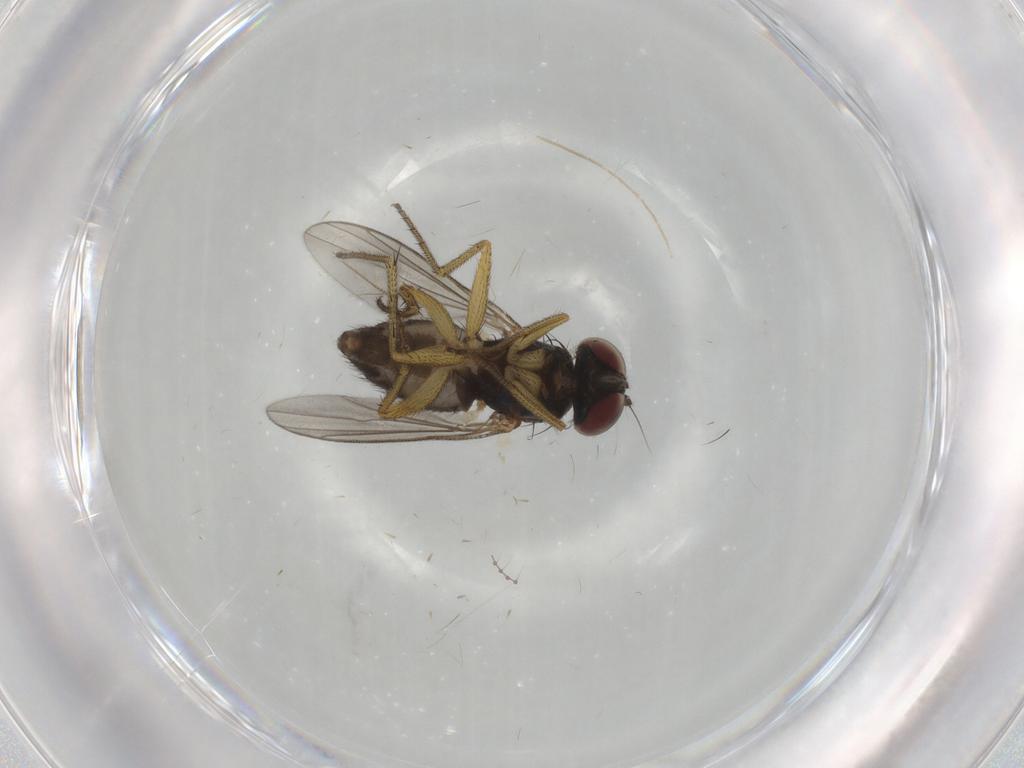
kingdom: Animalia
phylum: Arthropoda
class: Insecta
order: Diptera
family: Dolichopodidae
